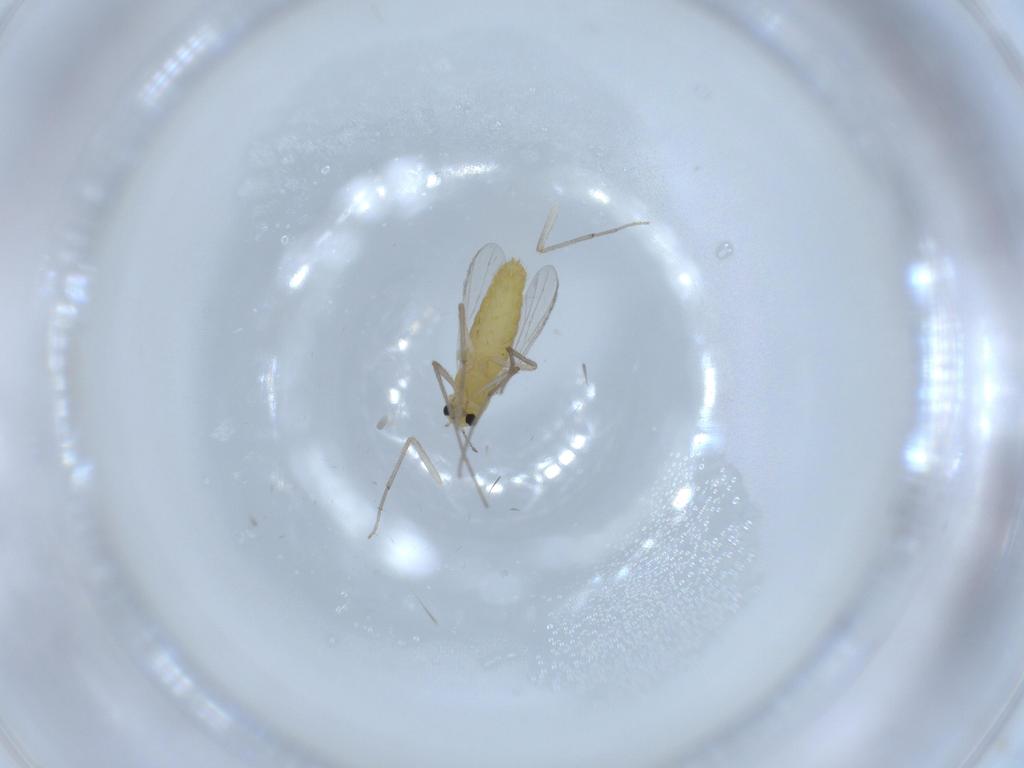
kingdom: Animalia
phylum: Arthropoda
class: Insecta
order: Diptera
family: Chironomidae
